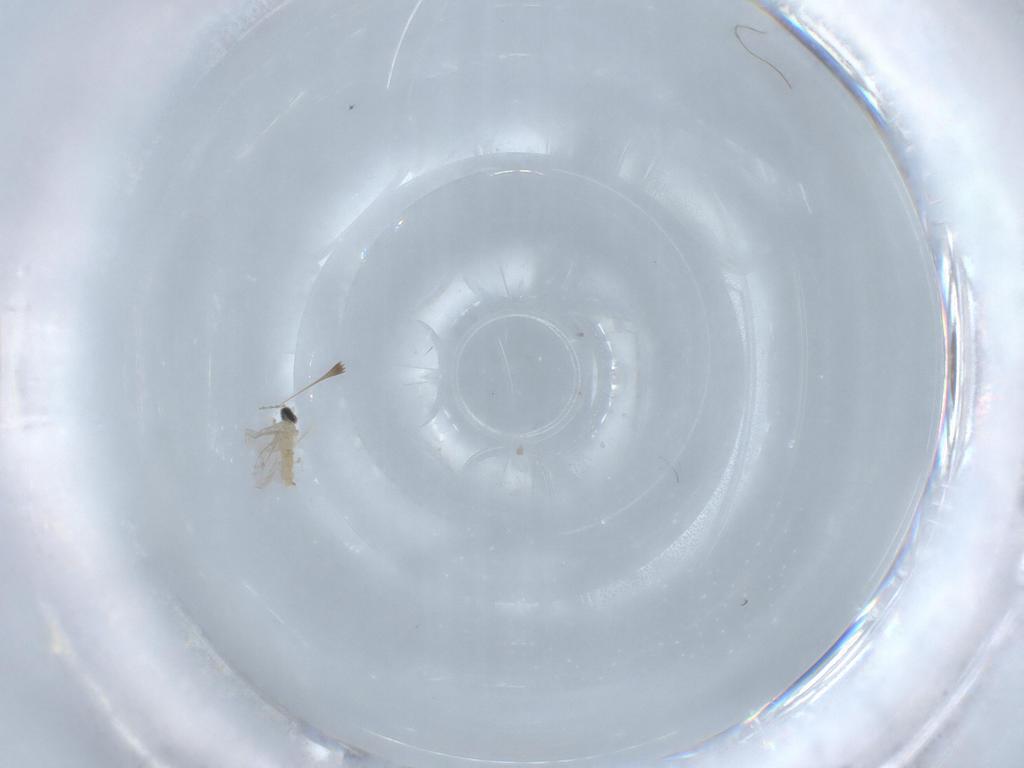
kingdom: Animalia
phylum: Arthropoda
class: Insecta
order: Diptera
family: Cecidomyiidae
